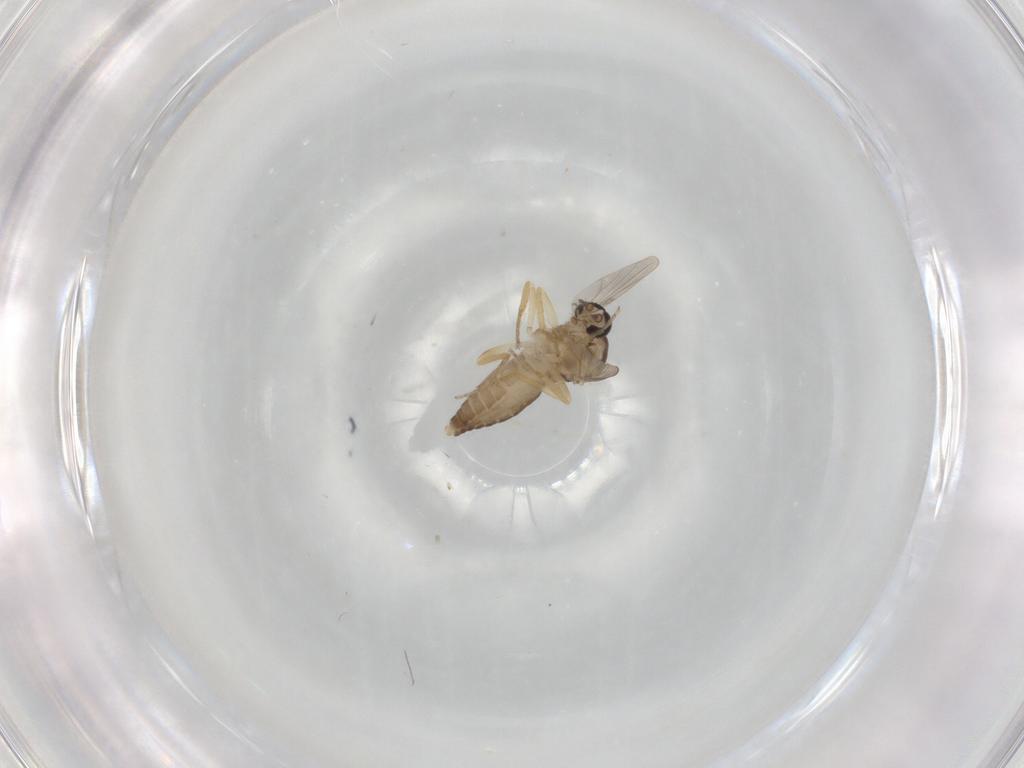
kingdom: Animalia
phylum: Arthropoda
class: Insecta
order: Diptera
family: Ceratopogonidae
